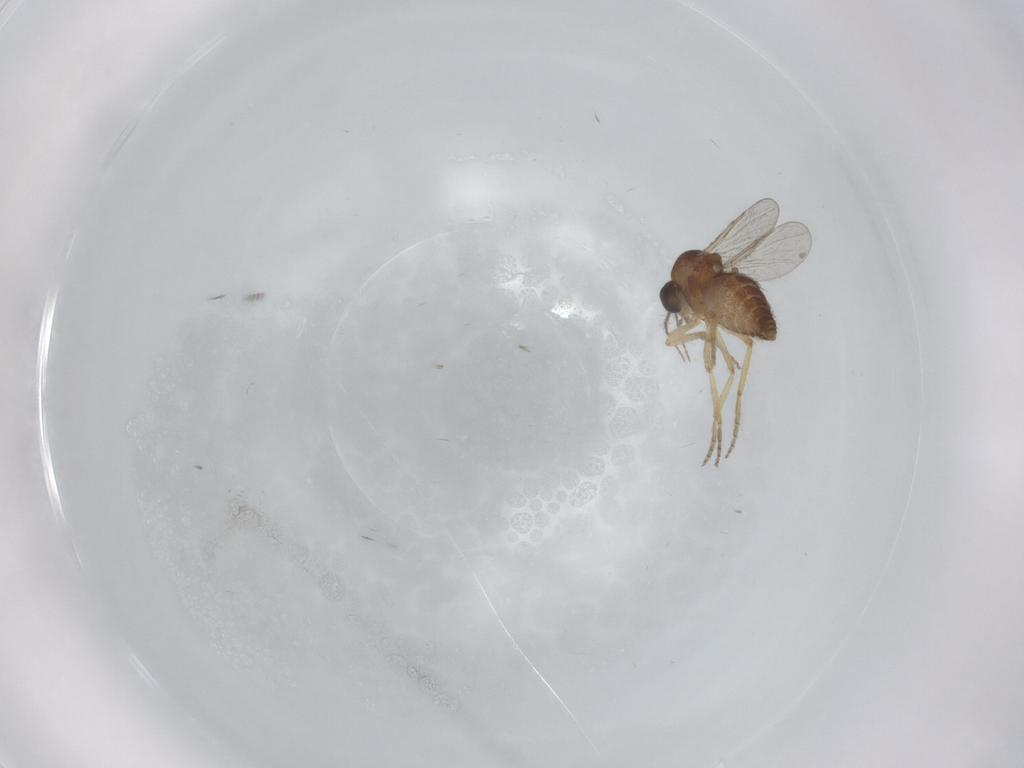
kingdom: Animalia
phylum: Arthropoda
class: Insecta
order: Diptera
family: Ceratopogonidae
